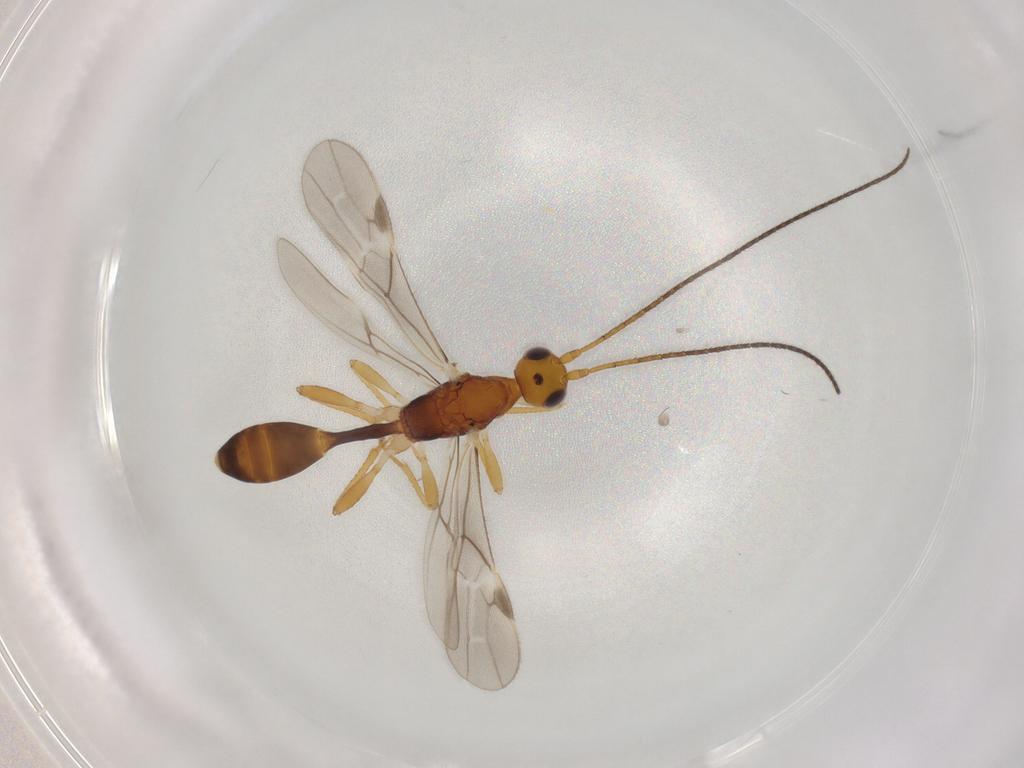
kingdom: Animalia
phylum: Arthropoda
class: Insecta
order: Hymenoptera
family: Braconidae
